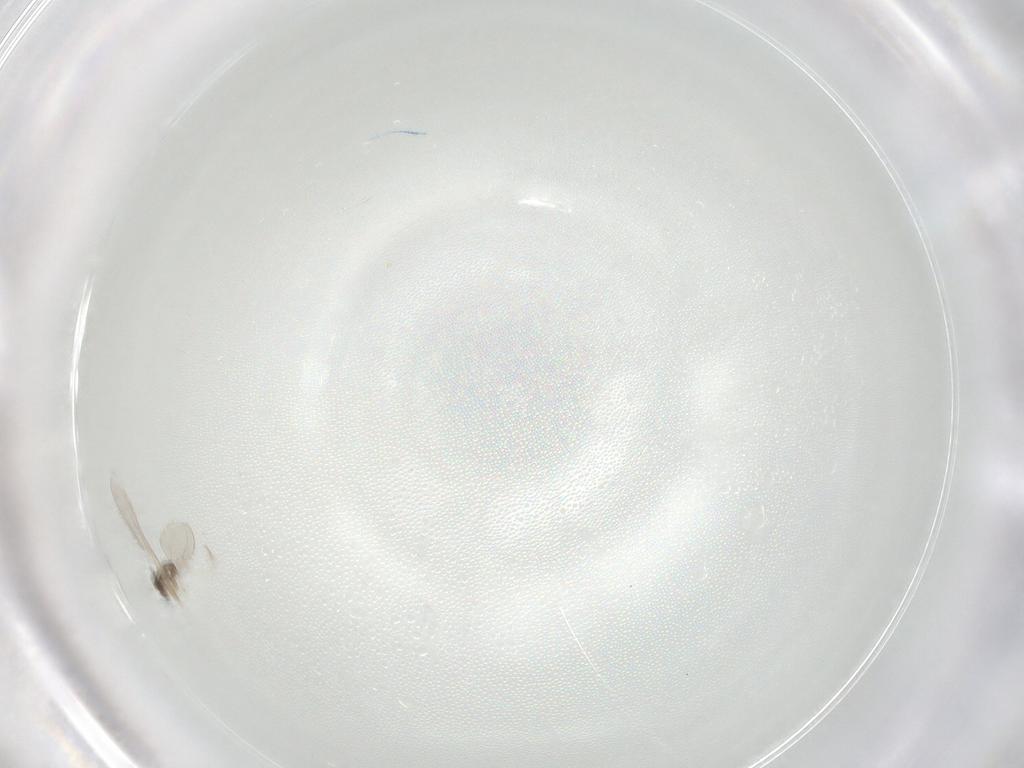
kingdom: Animalia
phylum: Arthropoda
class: Insecta
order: Diptera
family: Cecidomyiidae
